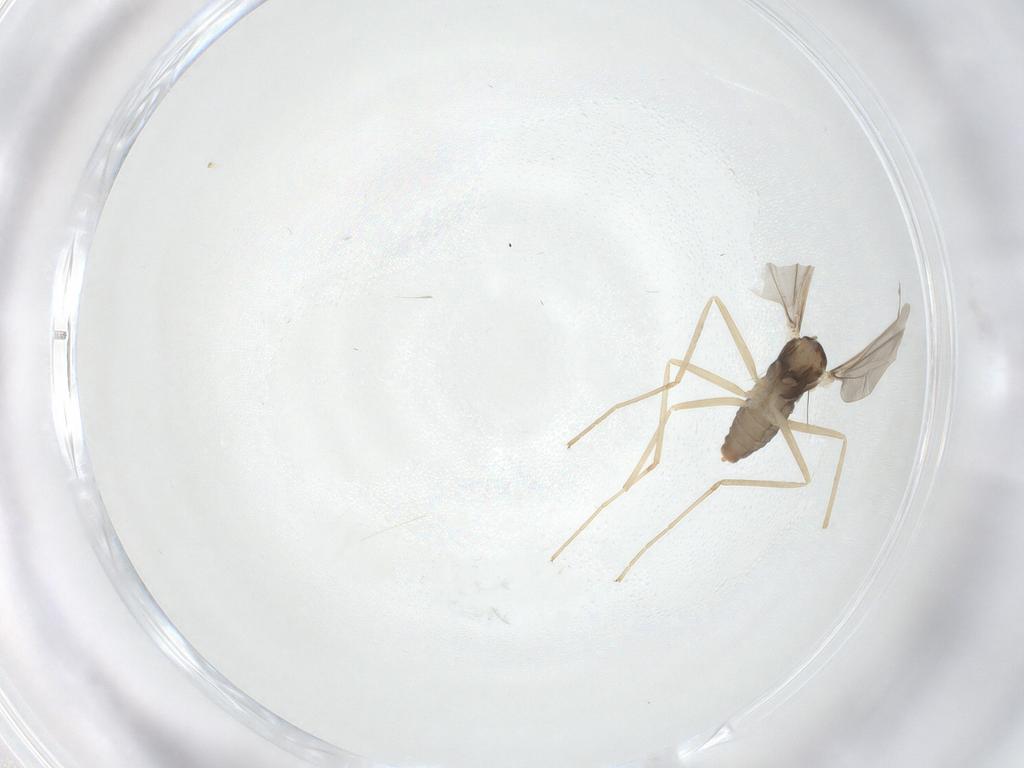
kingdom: Animalia
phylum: Arthropoda
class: Insecta
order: Diptera
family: Cecidomyiidae
